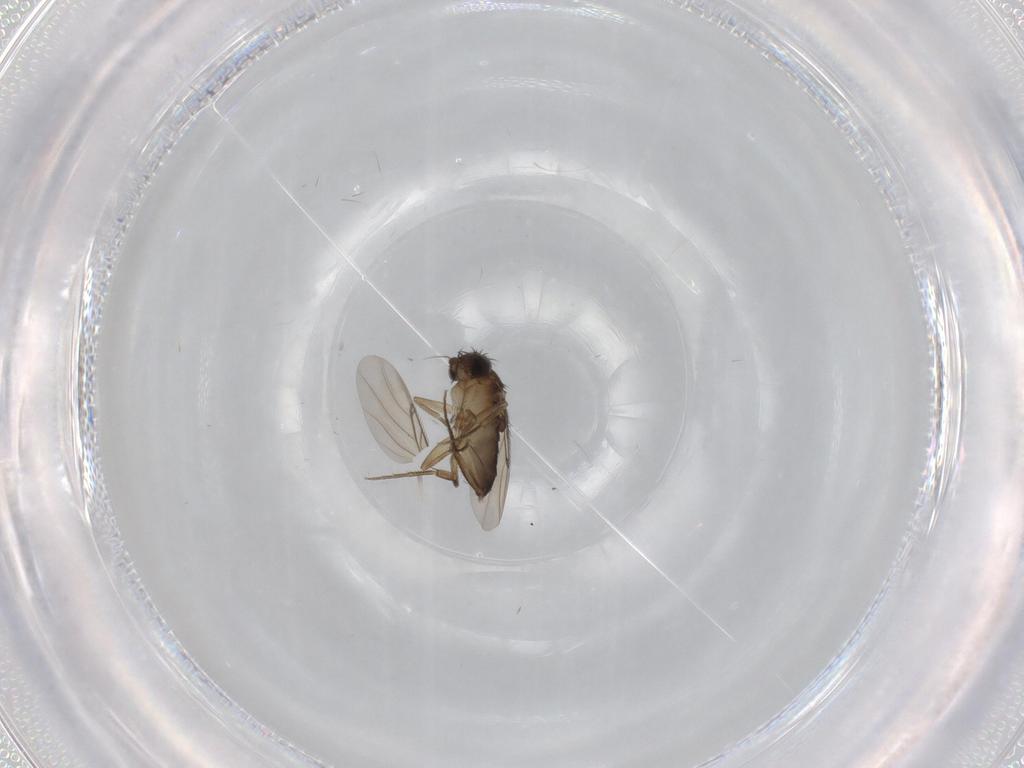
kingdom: Animalia
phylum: Arthropoda
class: Insecta
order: Diptera
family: Phoridae
